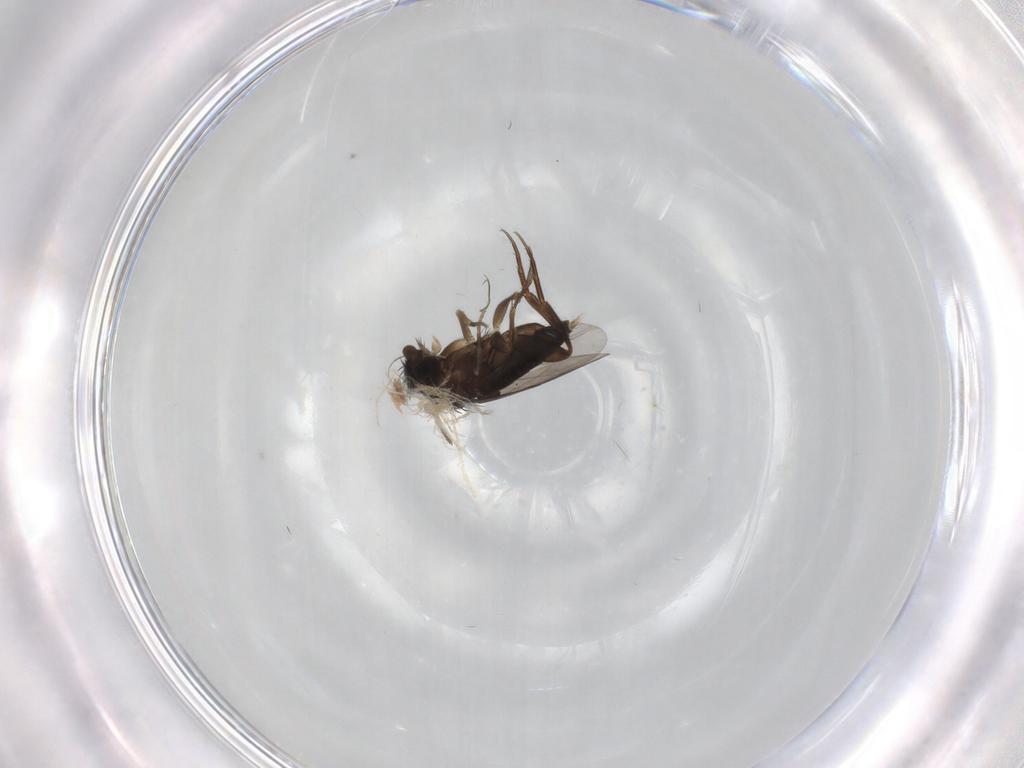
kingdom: Animalia
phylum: Arthropoda
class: Insecta
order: Diptera
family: Phoridae
